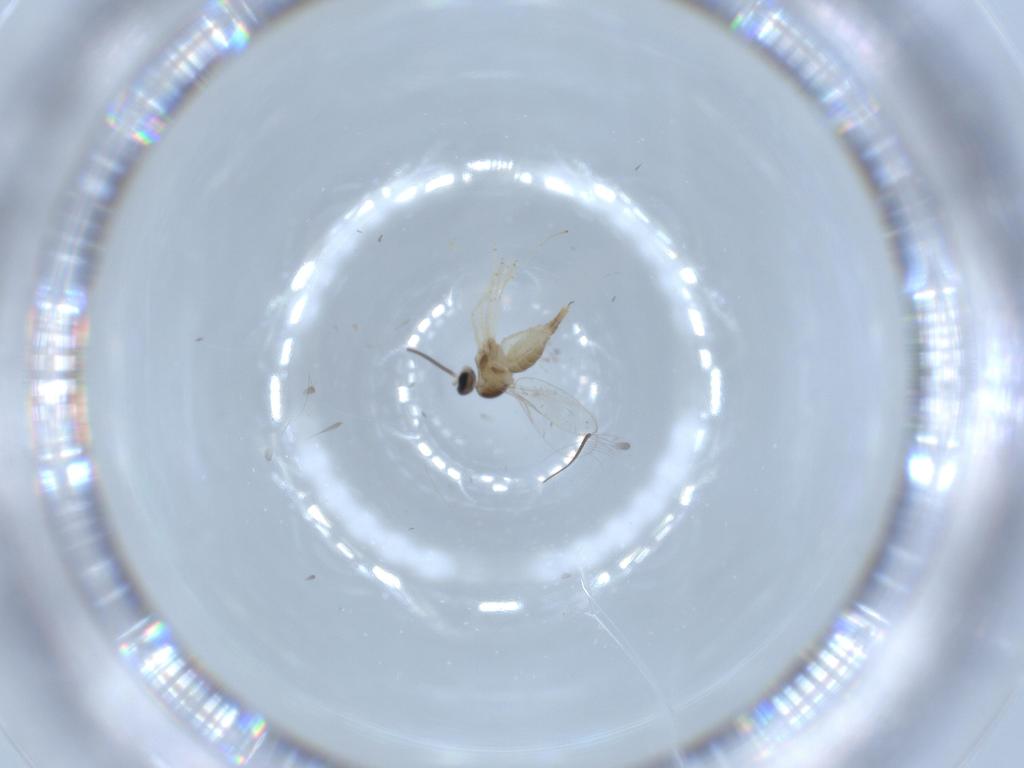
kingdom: Animalia
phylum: Arthropoda
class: Insecta
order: Diptera
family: Cecidomyiidae
